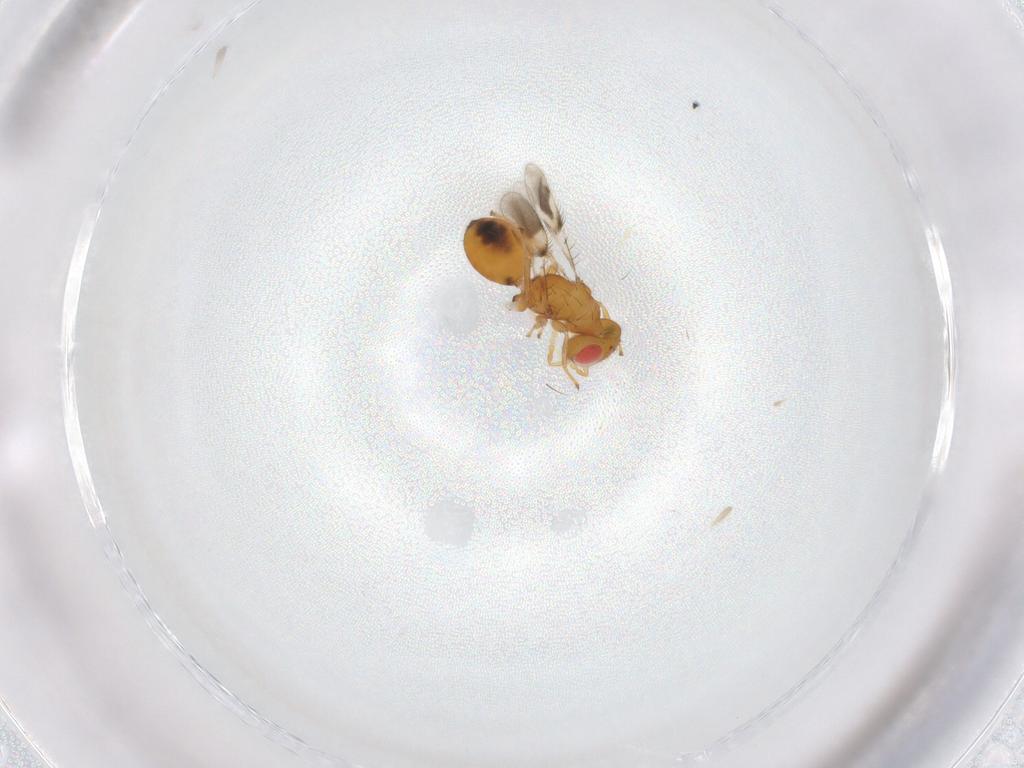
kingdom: Animalia
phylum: Arthropoda
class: Insecta
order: Hymenoptera
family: Eulophidae
